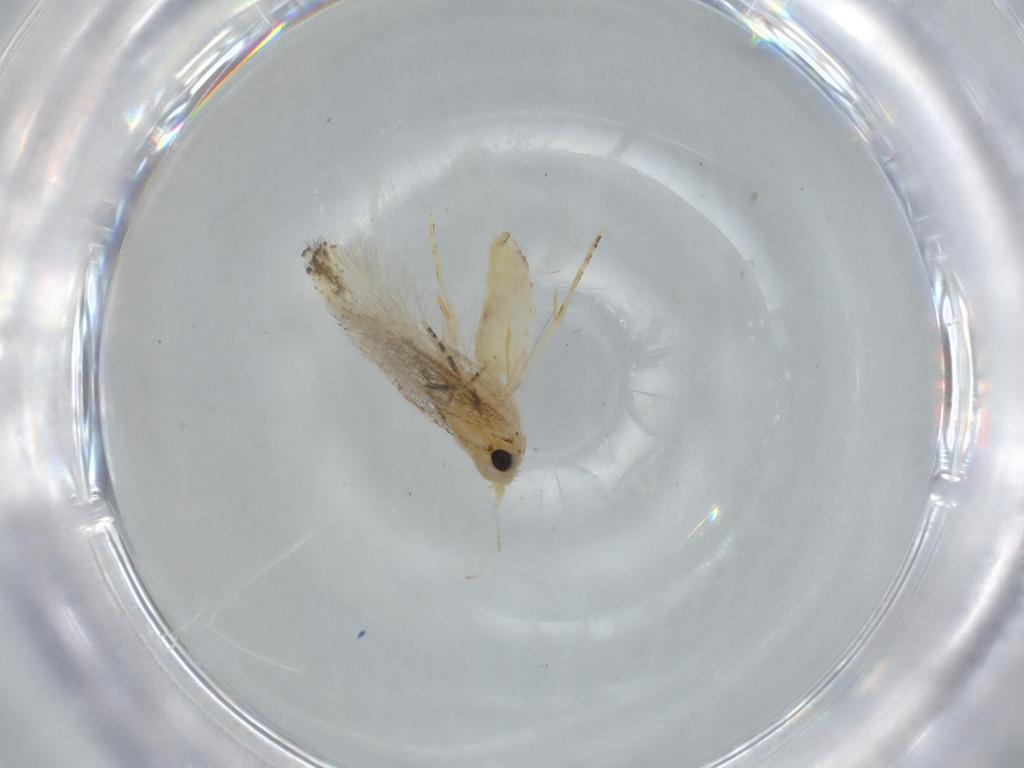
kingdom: Animalia
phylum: Arthropoda
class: Insecta
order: Lepidoptera
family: Bucculatricidae
